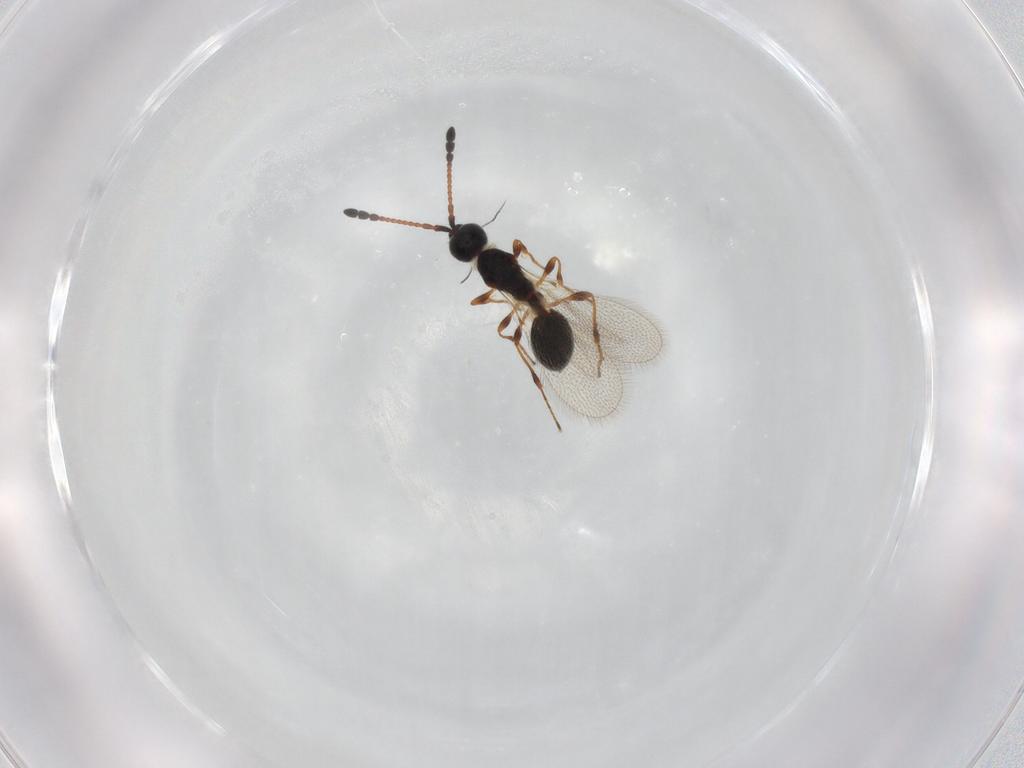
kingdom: Animalia
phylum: Arthropoda
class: Insecta
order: Hymenoptera
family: Diapriidae
